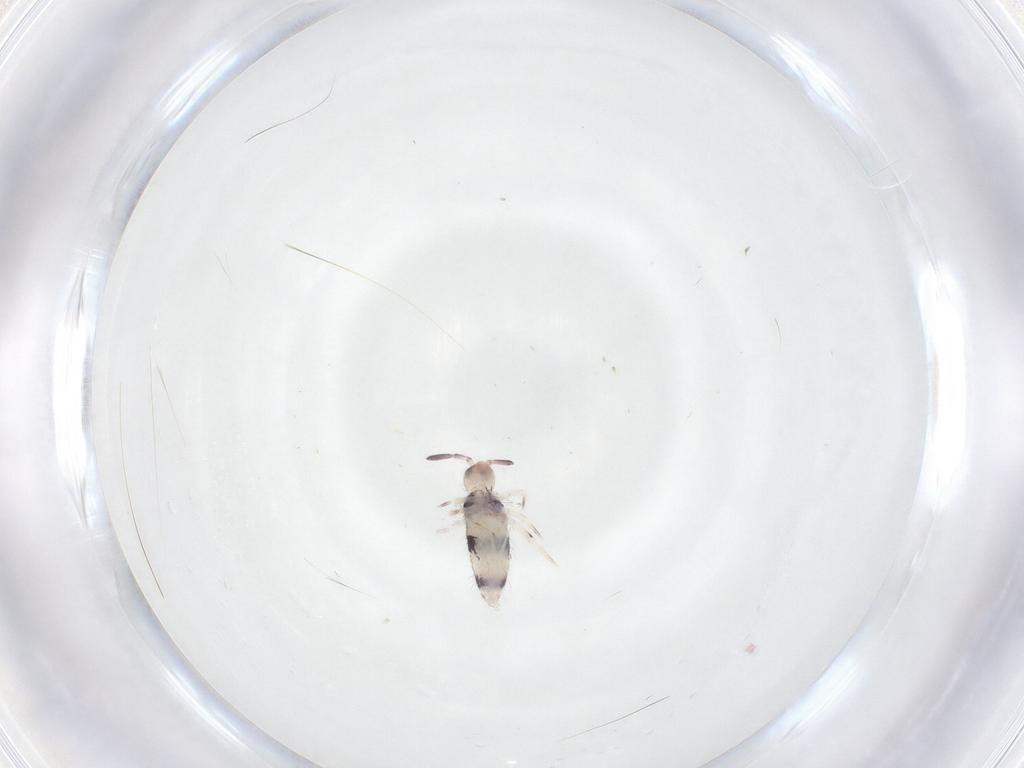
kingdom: Animalia
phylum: Arthropoda
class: Collembola
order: Entomobryomorpha
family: Entomobryidae
